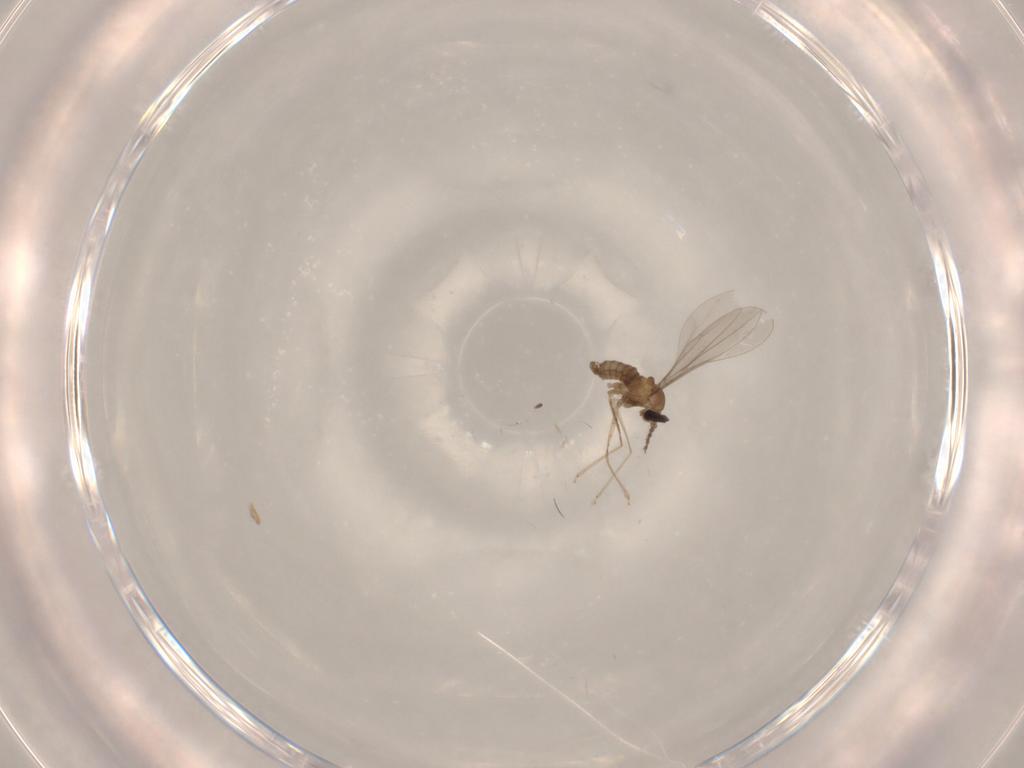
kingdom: Animalia
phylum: Arthropoda
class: Insecta
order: Diptera
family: Cecidomyiidae
